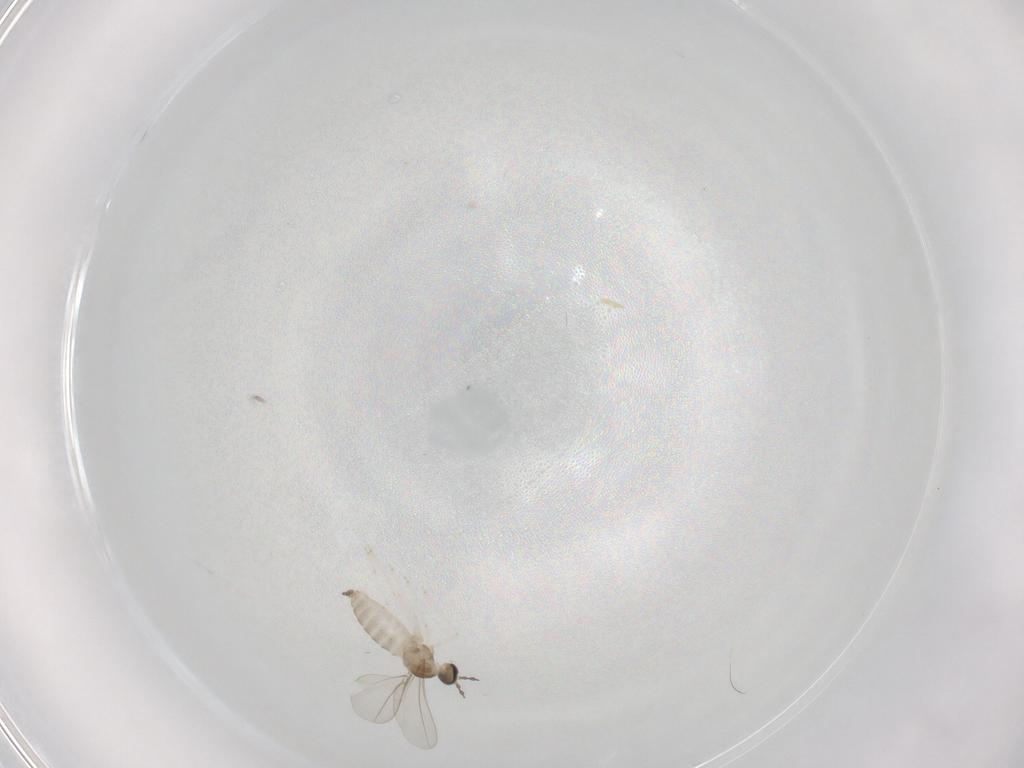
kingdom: Animalia
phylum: Arthropoda
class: Insecta
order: Diptera
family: Cecidomyiidae
